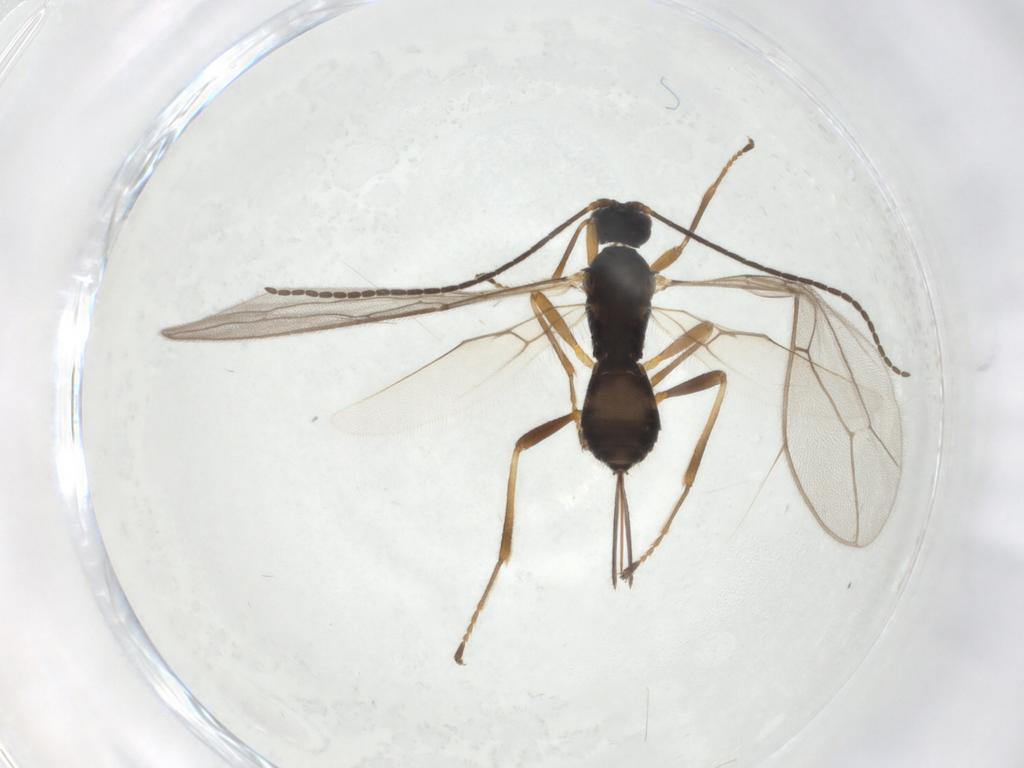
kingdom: Animalia
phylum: Arthropoda
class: Insecta
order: Hymenoptera
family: Braconidae
